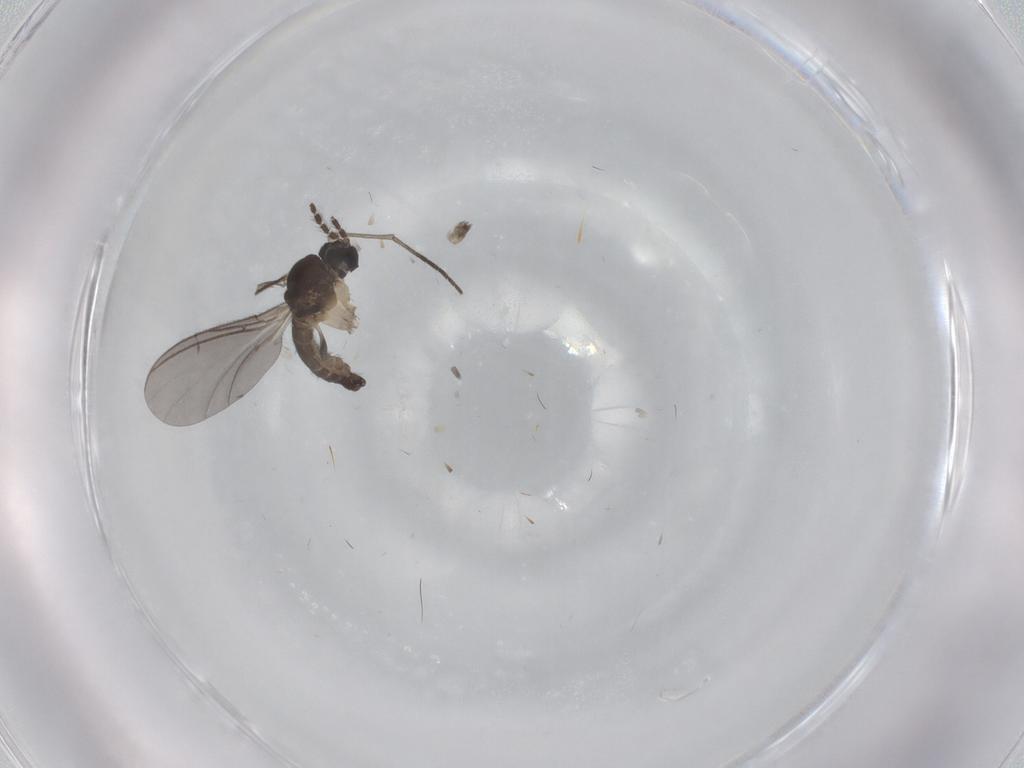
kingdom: Animalia
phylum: Arthropoda
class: Insecta
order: Diptera
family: Sciaridae
